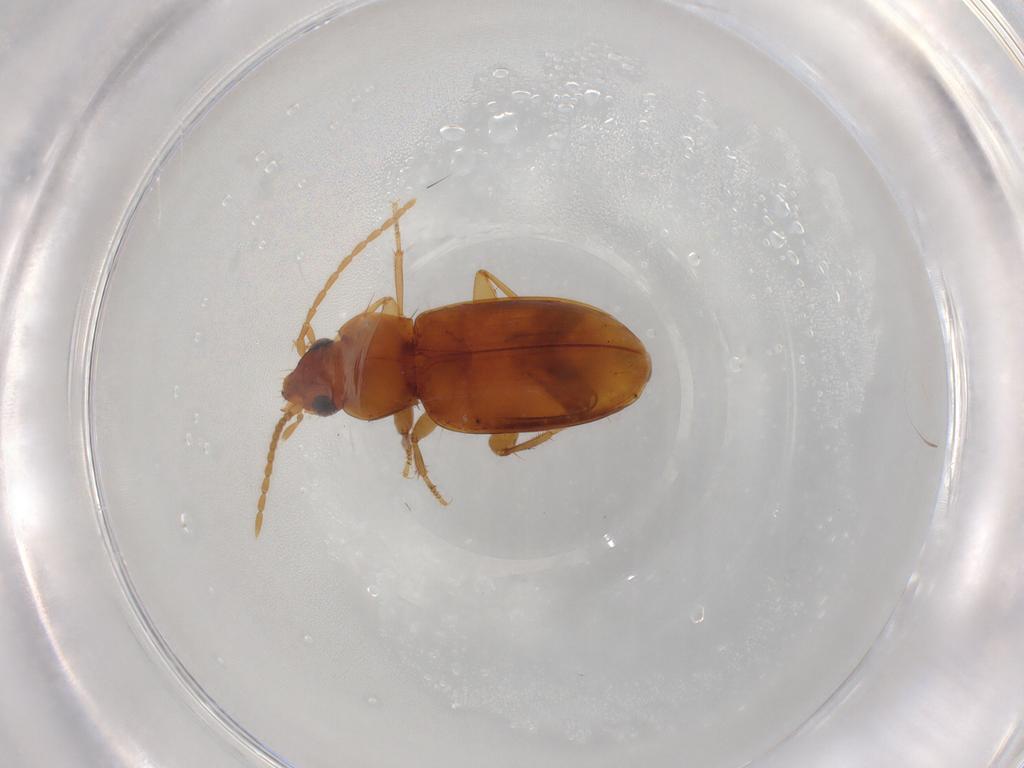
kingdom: Animalia
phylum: Arthropoda
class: Insecta
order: Coleoptera
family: Carabidae
